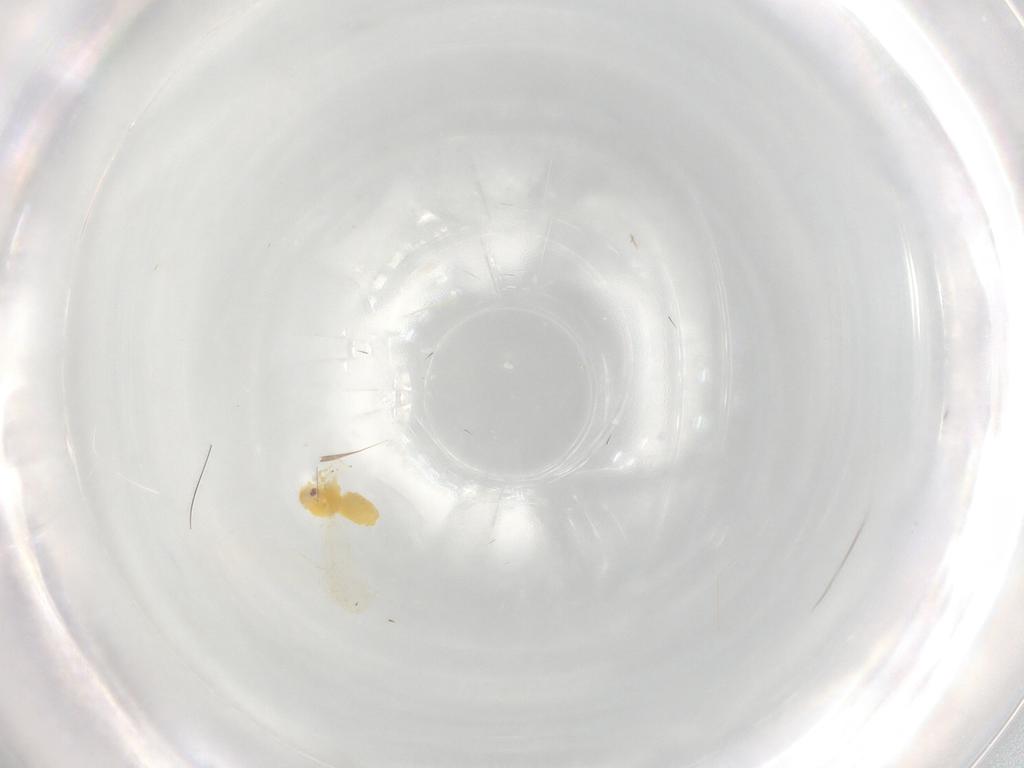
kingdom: Animalia
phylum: Arthropoda
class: Insecta
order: Hemiptera
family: Aleyrodidae
